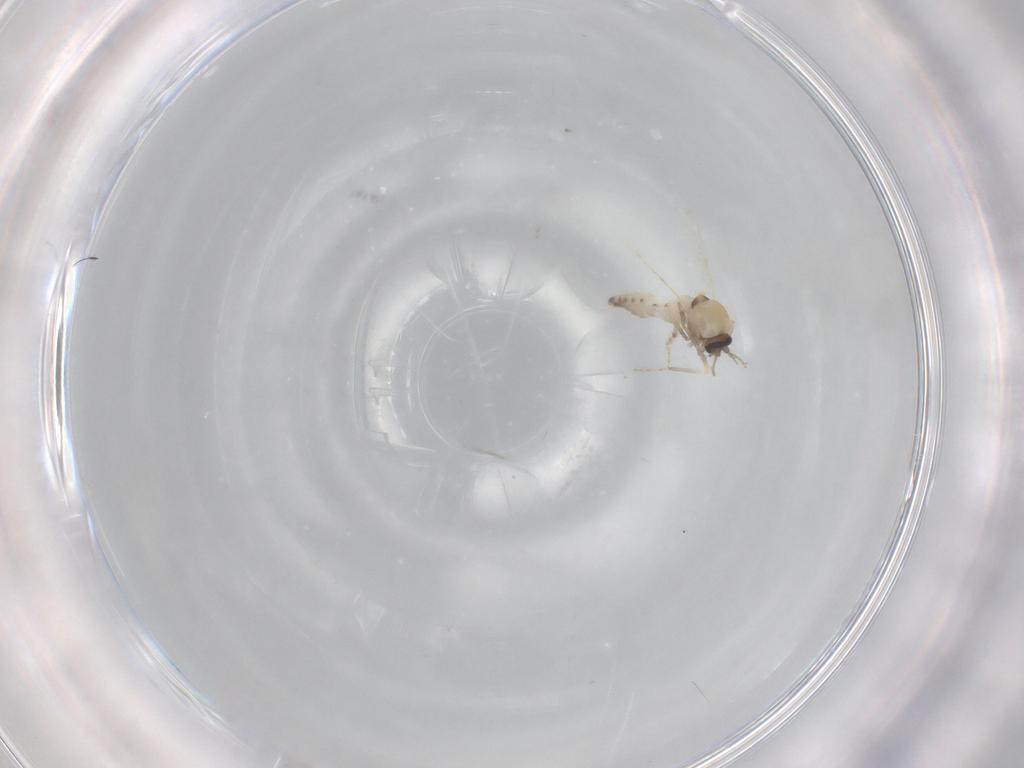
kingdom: Animalia
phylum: Arthropoda
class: Insecta
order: Diptera
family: Ceratopogonidae
